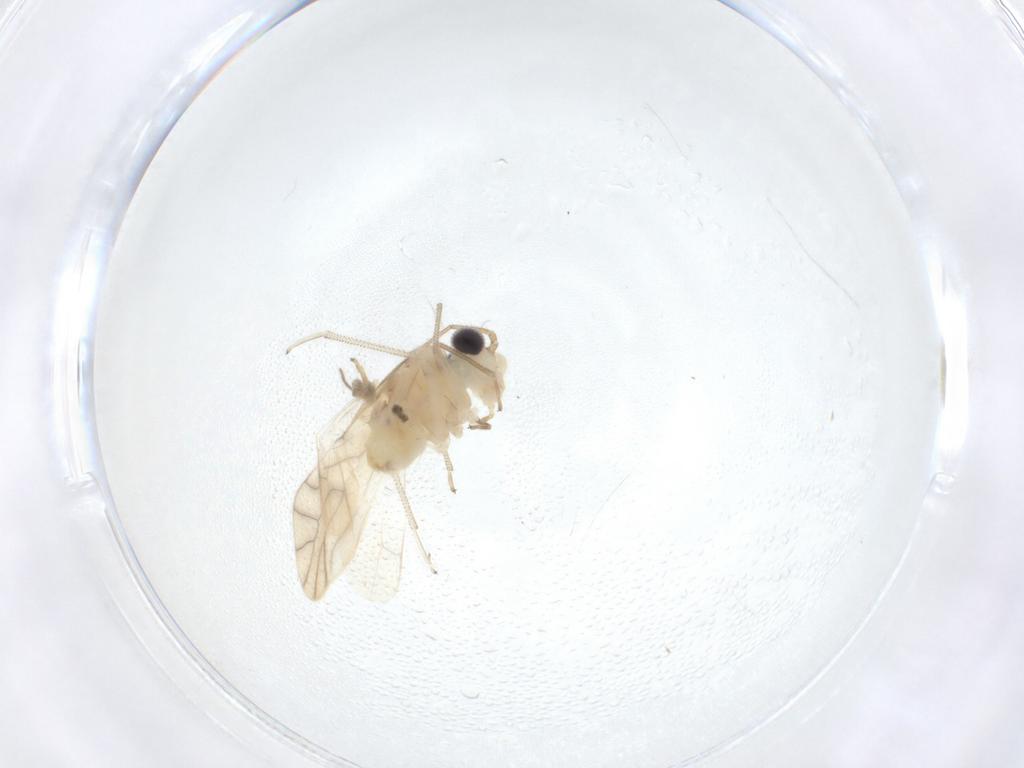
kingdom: Animalia
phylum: Arthropoda
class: Insecta
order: Psocodea
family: Caeciliusidae
